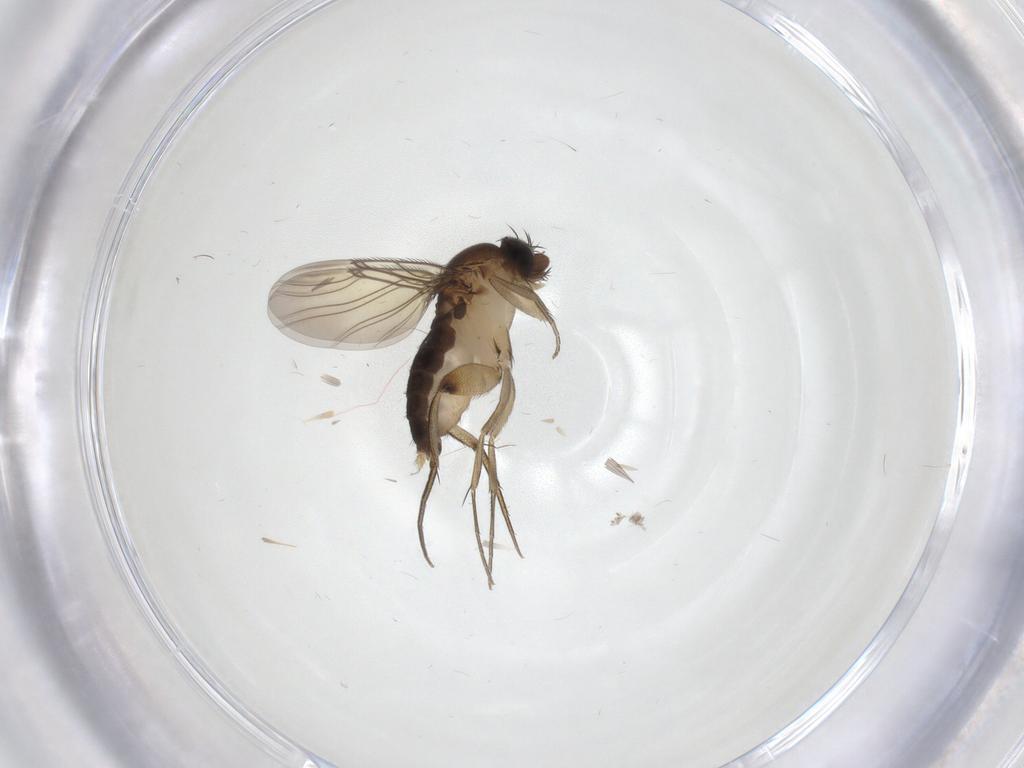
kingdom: Animalia
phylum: Arthropoda
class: Insecta
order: Diptera
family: Phoridae
